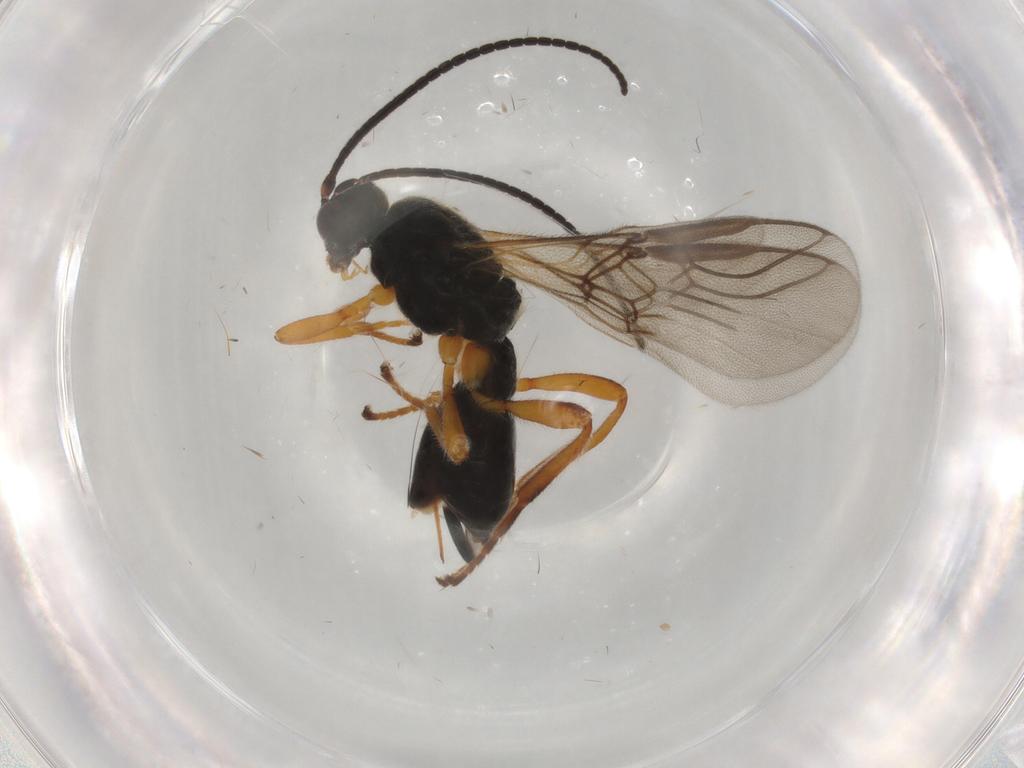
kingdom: Animalia
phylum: Arthropoda
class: Insecta
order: Hymenoptera
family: Braconidae
